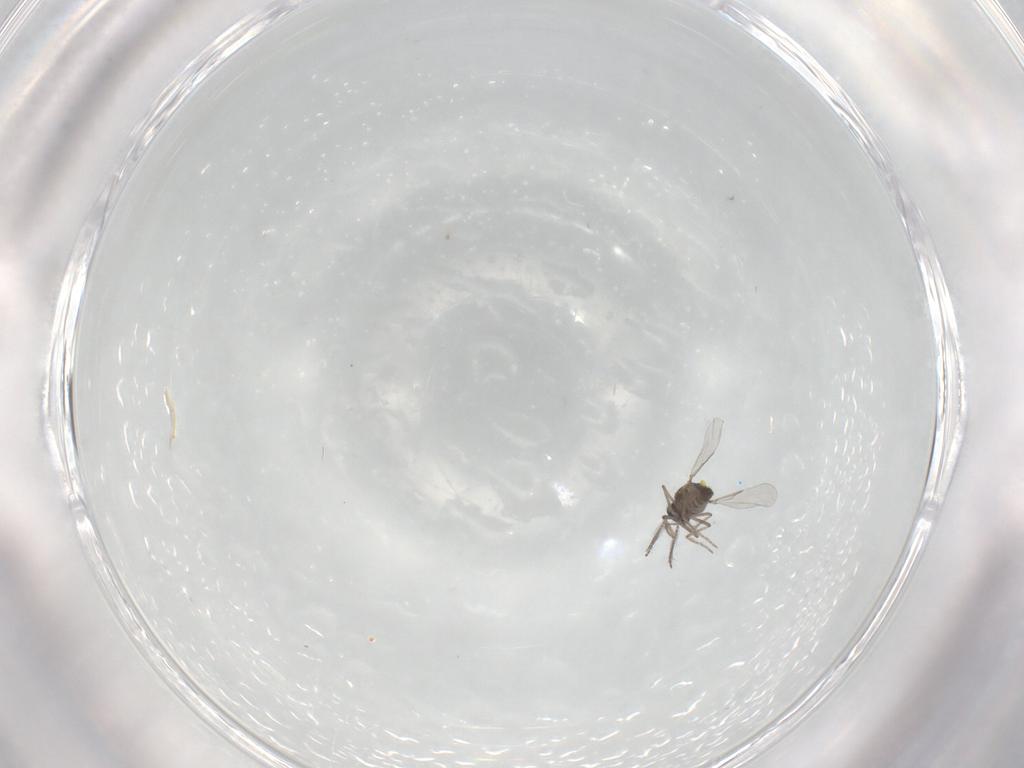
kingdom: Animalia
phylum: Arthropoda
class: Insecta
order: Diptera
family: Ceratopogonidae
